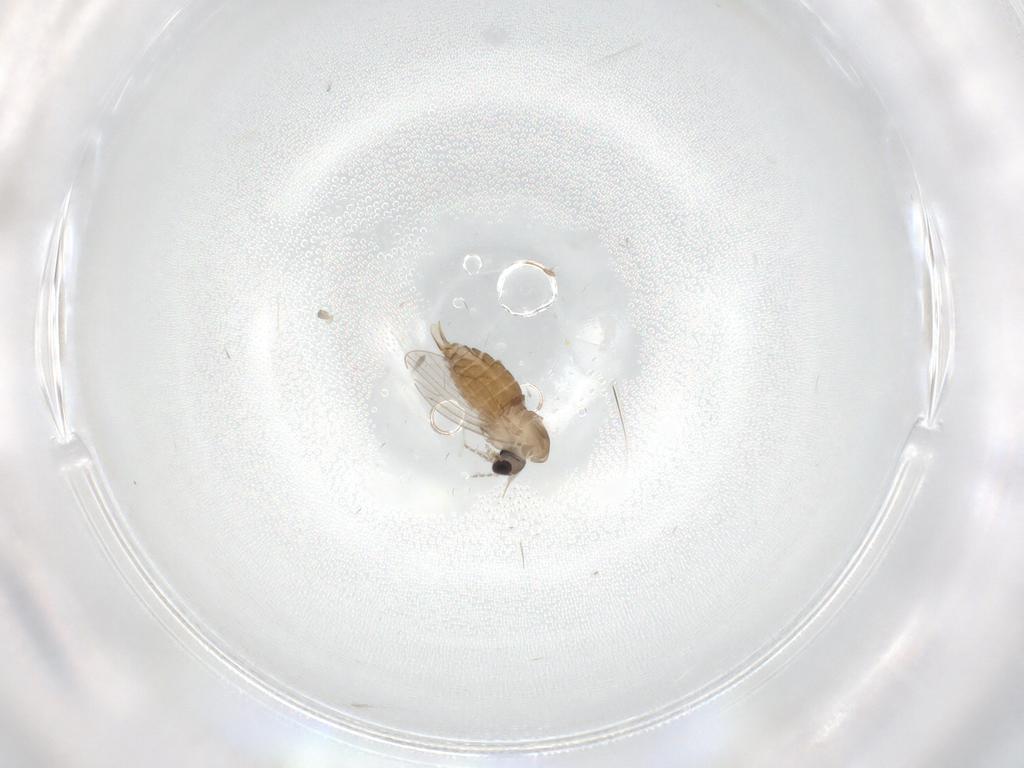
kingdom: Animalia
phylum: Arthropoda
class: Insecta
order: Diptera
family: Dolichopodidae
